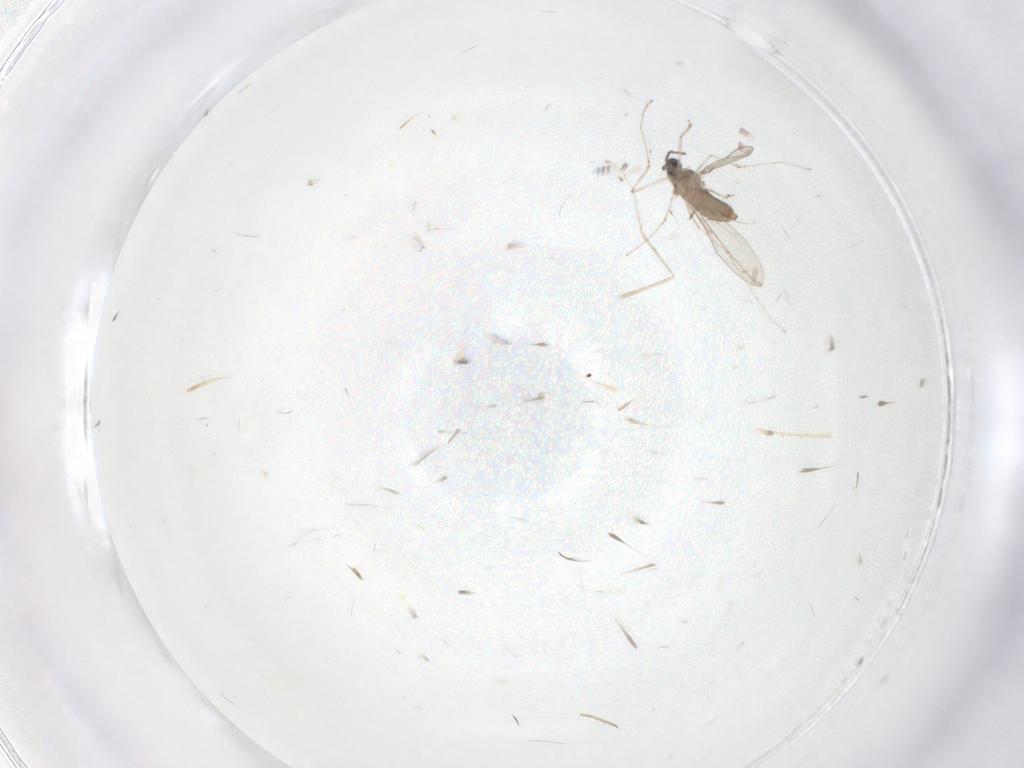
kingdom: Animalia
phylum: Arthropoda
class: Insecta
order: Diptera
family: Cecidomyiidae
